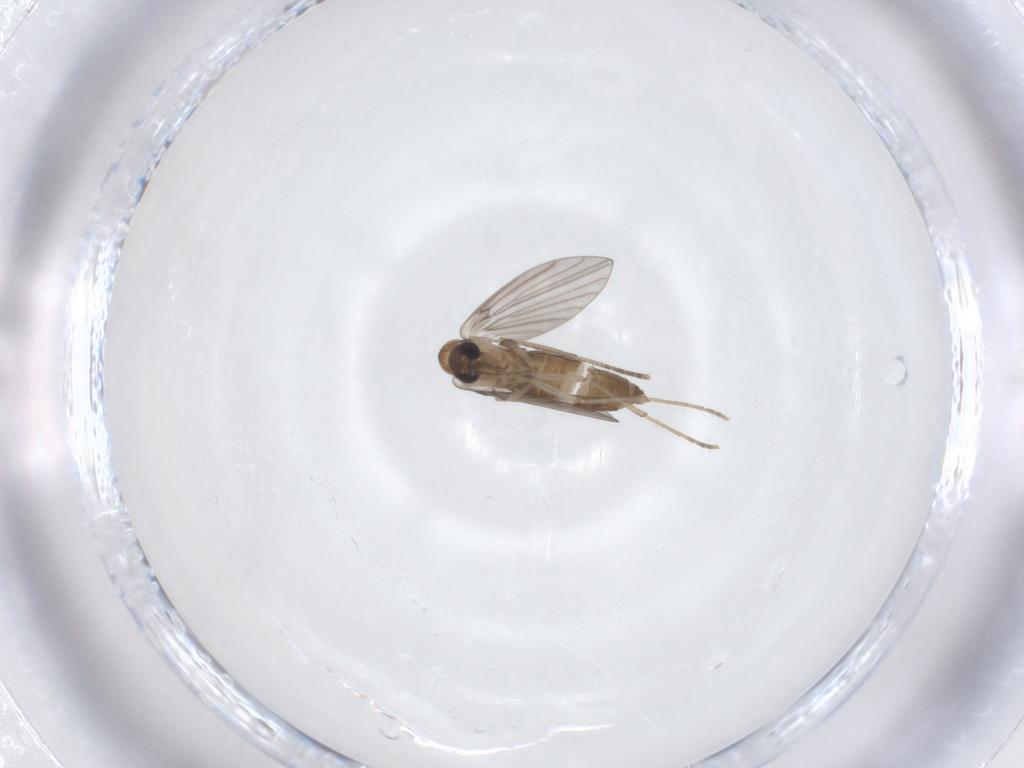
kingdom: Animalia
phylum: Arthropoda
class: Insecta
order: Diptera
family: Psychodidae
